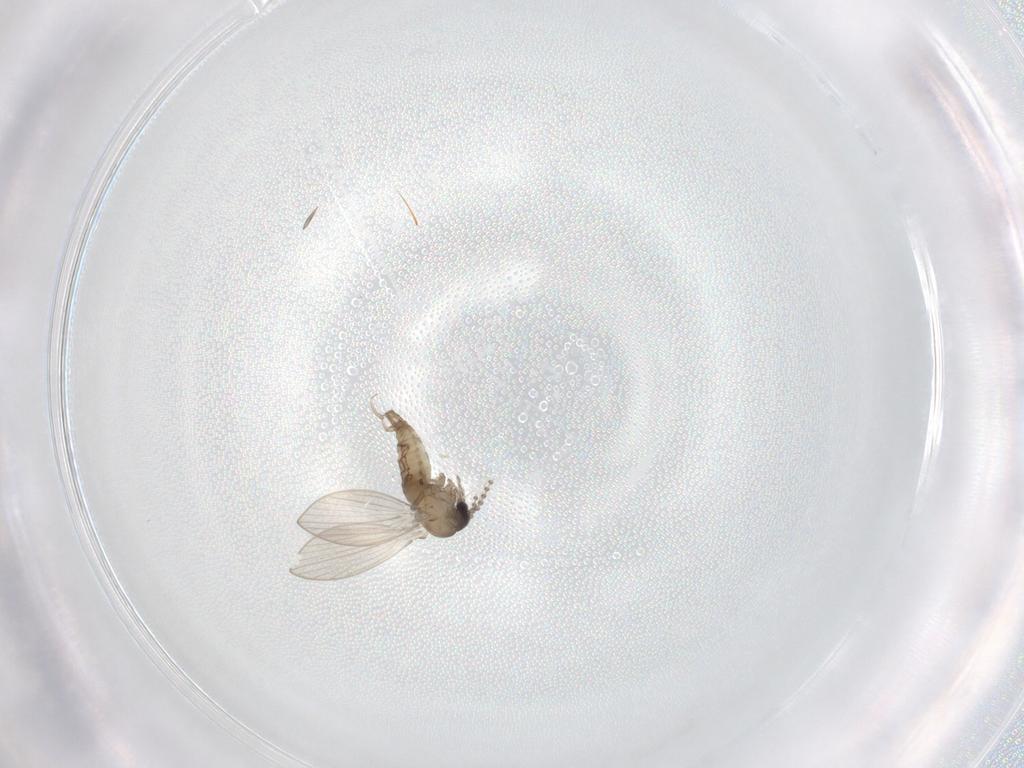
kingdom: Animalia
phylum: Arthropoda
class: Insecta
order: Diptera
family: Psychodidae
